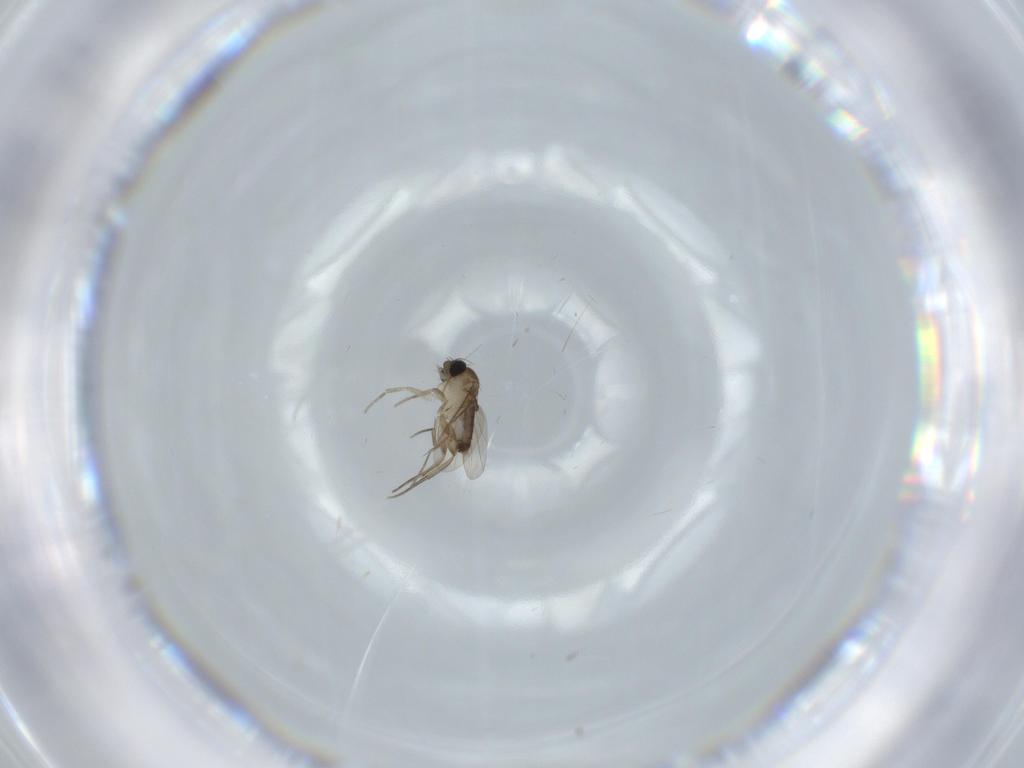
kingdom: Animalia
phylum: Arthropoda
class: Insecta
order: Diptera
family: Phoridae
